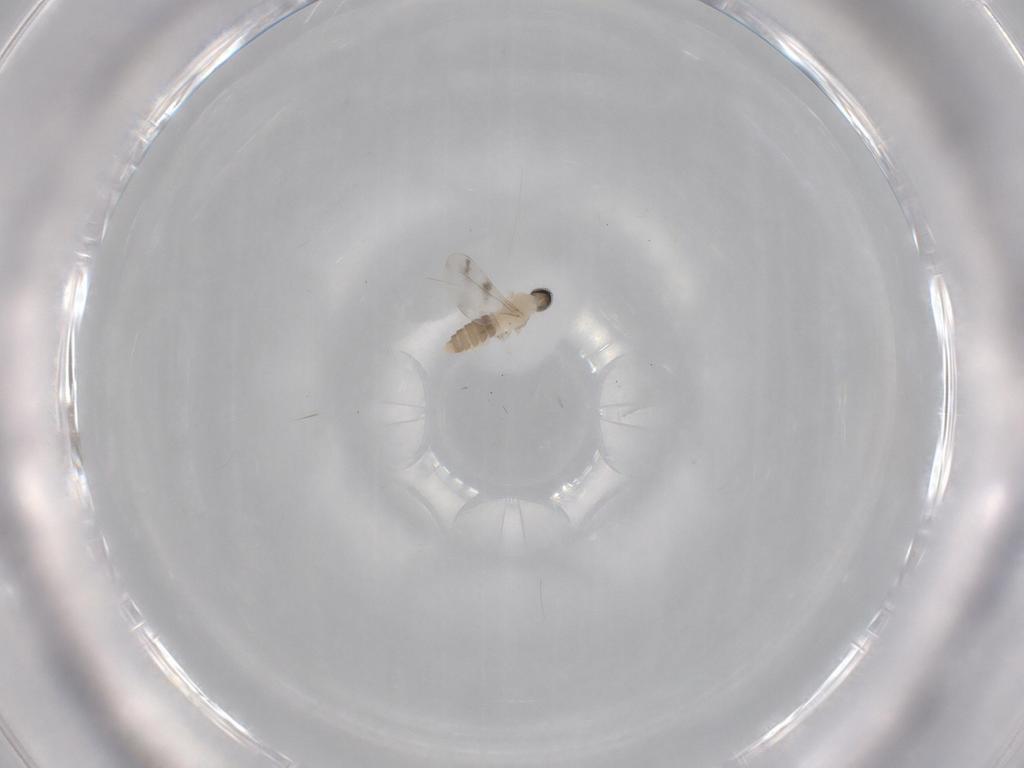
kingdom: Animalia
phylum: Arthropoda
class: Insecta
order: Diptera
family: Cecidomyiidae
